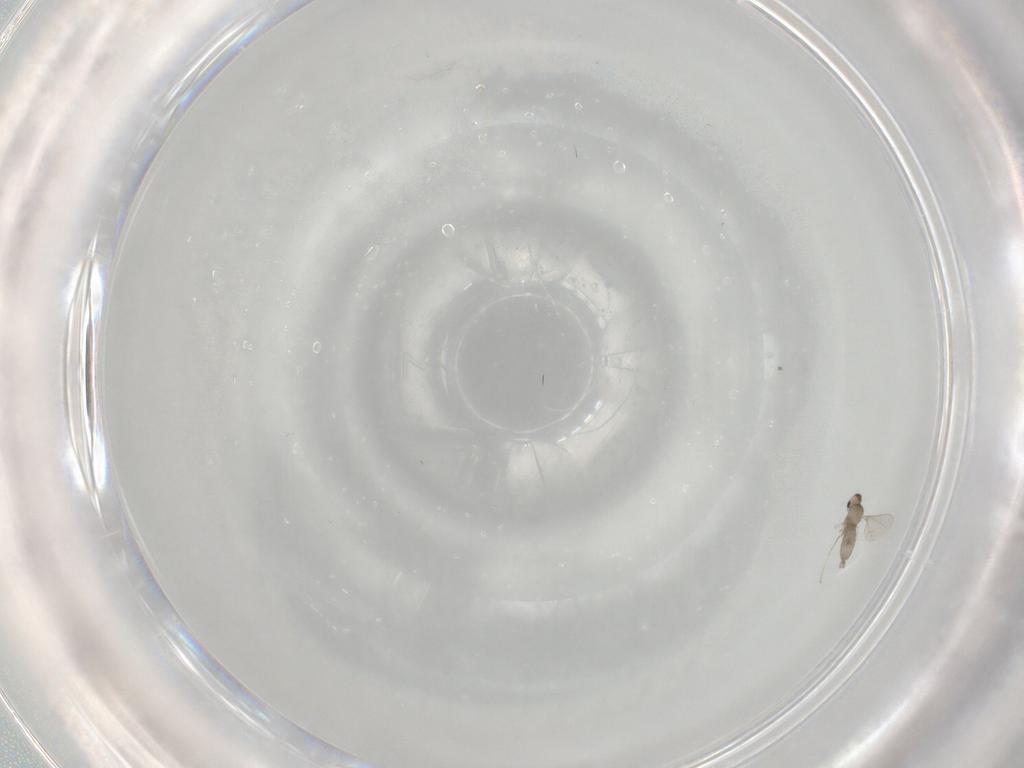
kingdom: Animalia
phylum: Arthropoda
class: Insecta
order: Diptera
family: Cecidomyiidae
